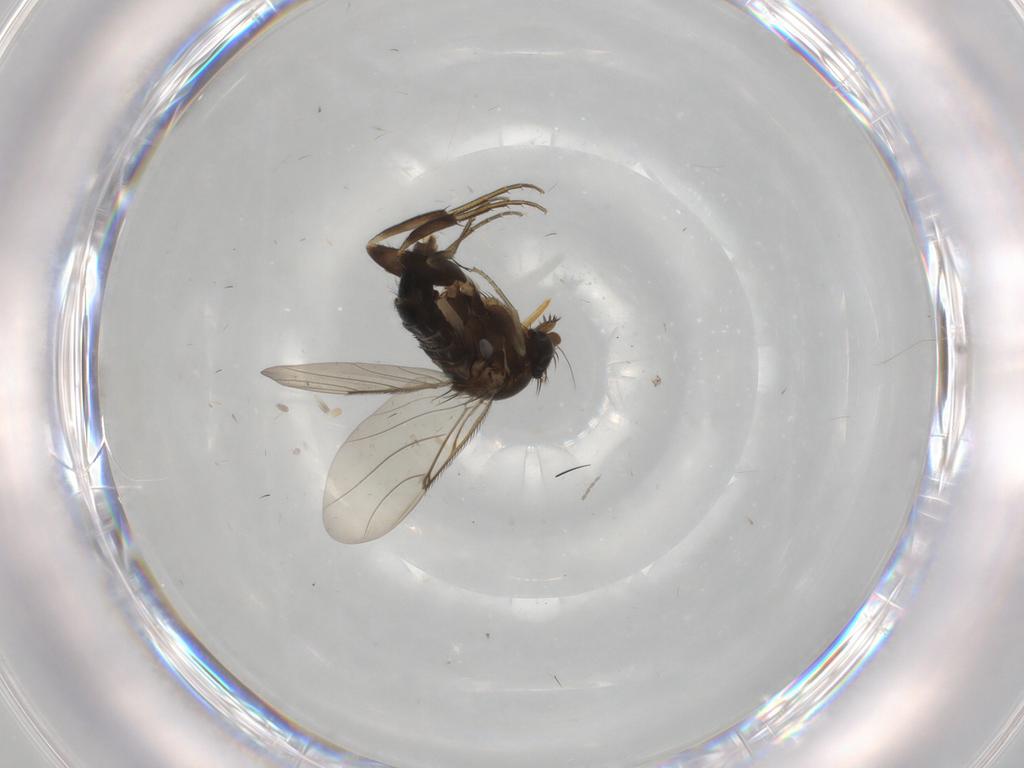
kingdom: Animalia
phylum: Arthropoda
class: Insecta
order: Diptera
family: Phoridae
